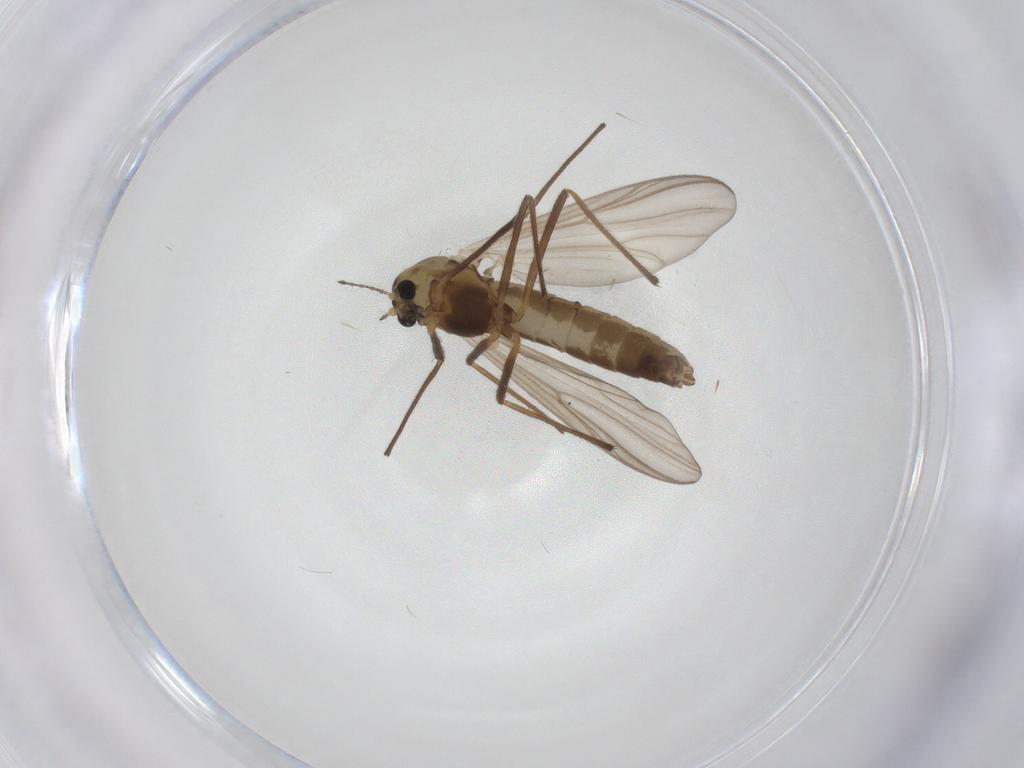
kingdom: Animalia
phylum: Arthropoda
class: Insecta
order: Diptera
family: Chironomidae
